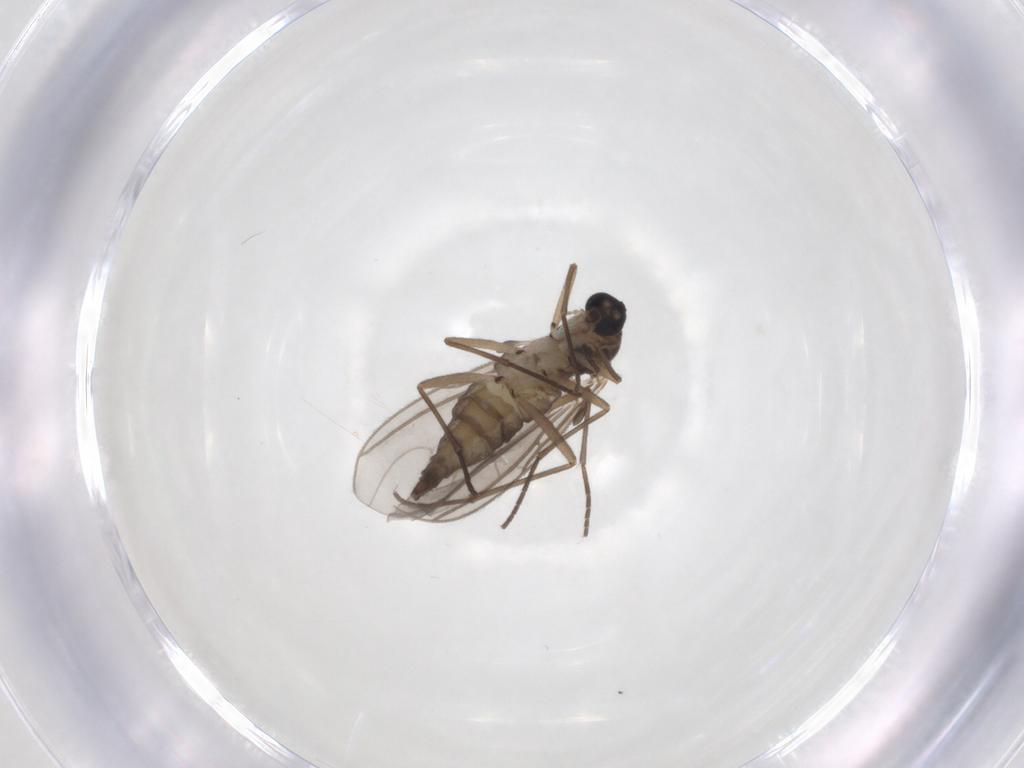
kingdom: Animalia
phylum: Arthropoda
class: Insecta
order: Diptera
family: Sciaridae
